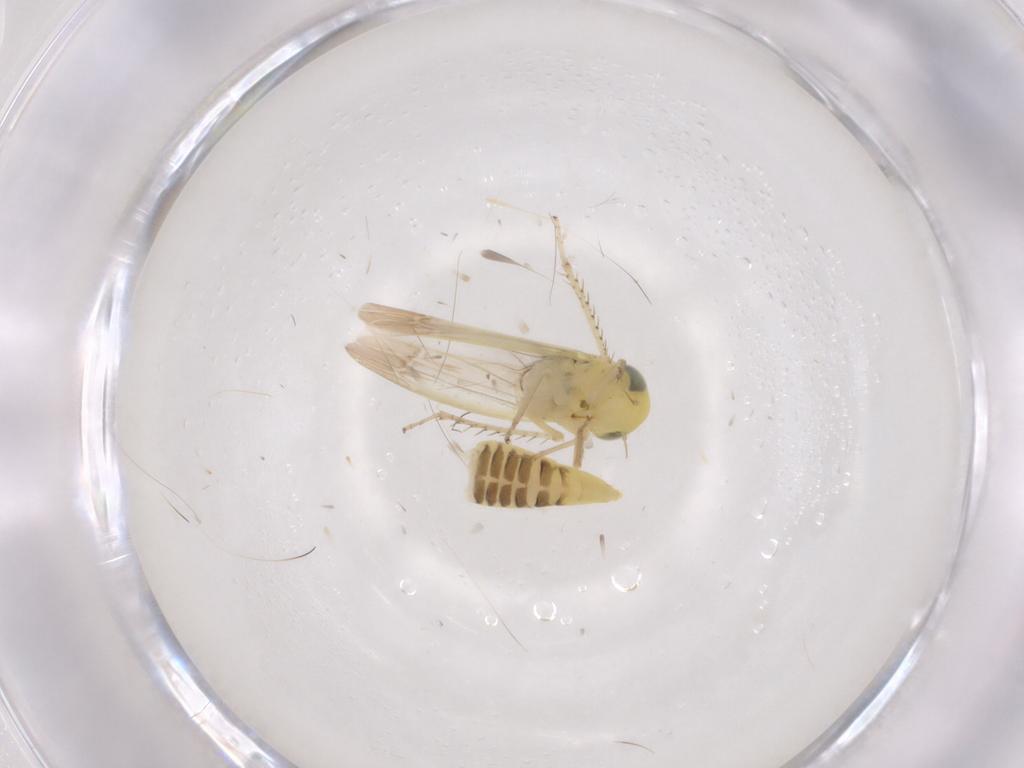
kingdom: Animalia
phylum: Arthropoda
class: Insecta
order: Hemiptera
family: Cicadellidae
